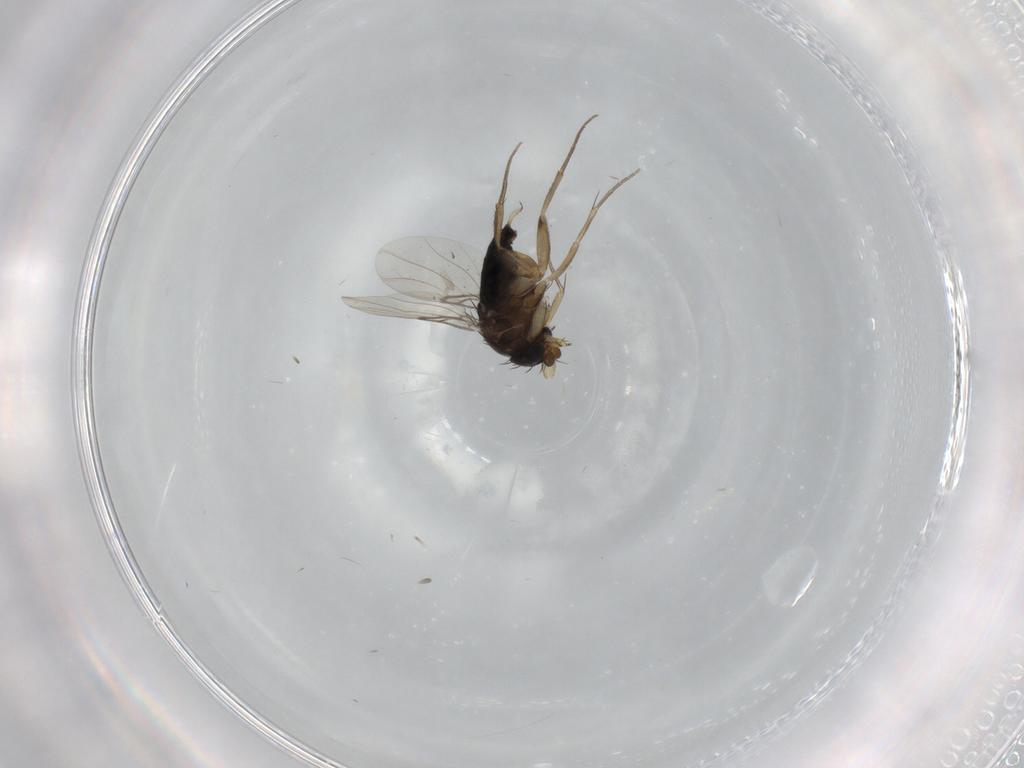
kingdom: Animalia
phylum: Arthropoda
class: Insecta
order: Diptera
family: Phoridae
